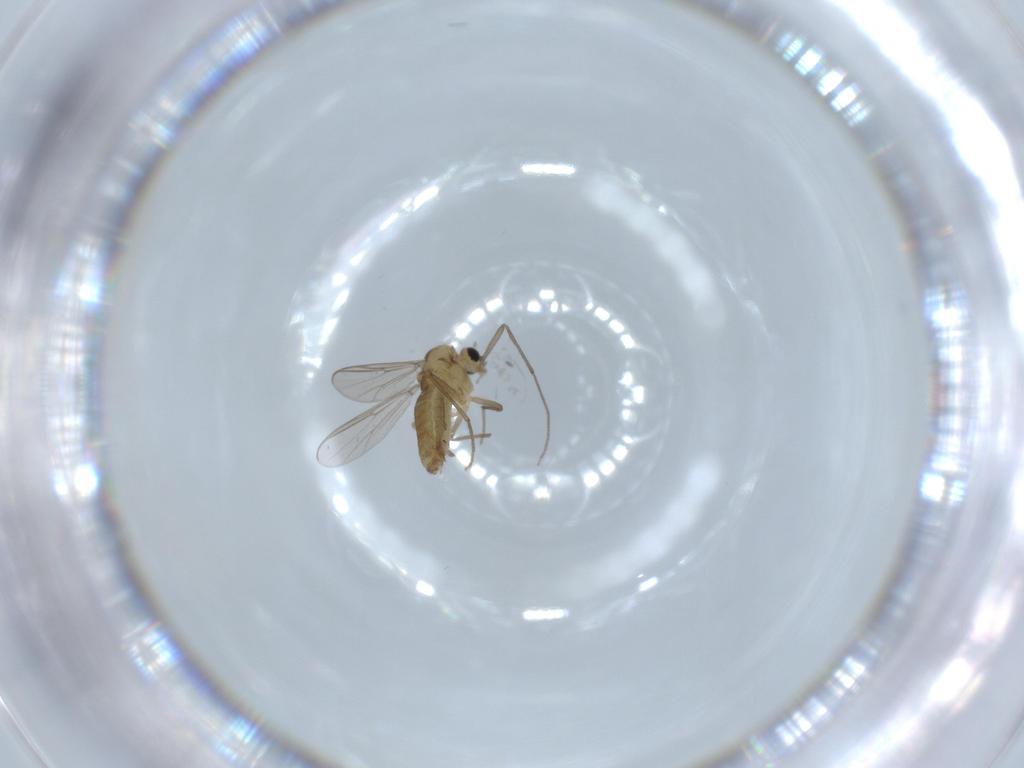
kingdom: Animalia
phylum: Arthropoda
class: Insecta
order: Diptera
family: Chironomidae
